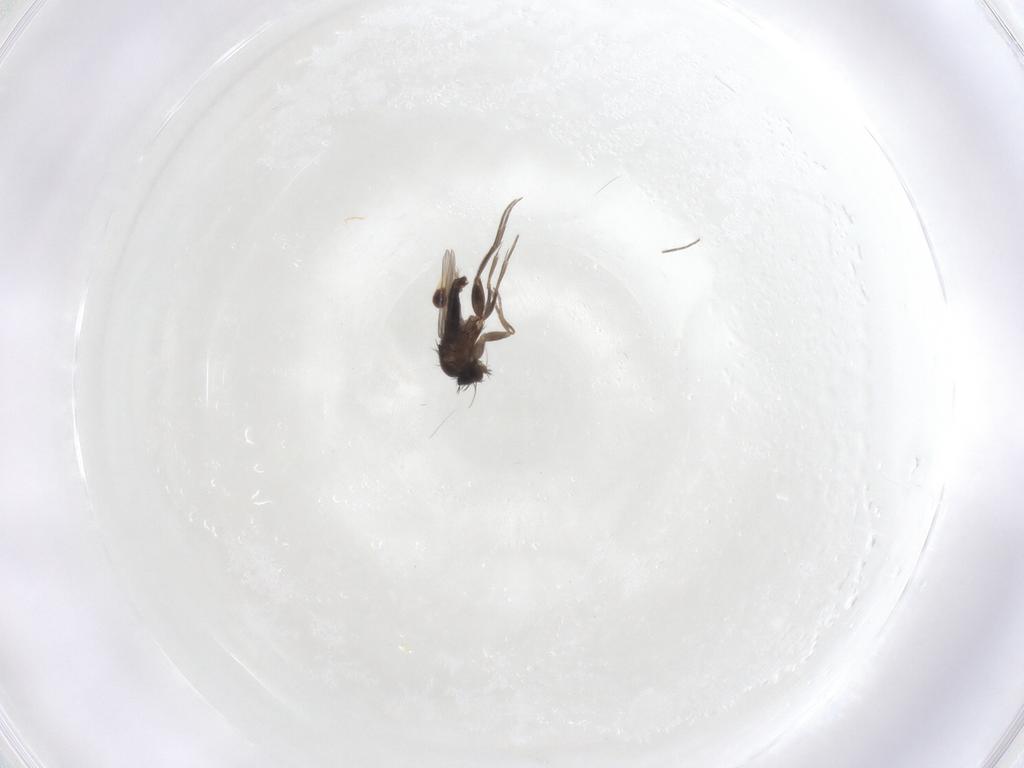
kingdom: Animalia
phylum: Arthropoda
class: Insecta
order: Diptera
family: Phoridae
